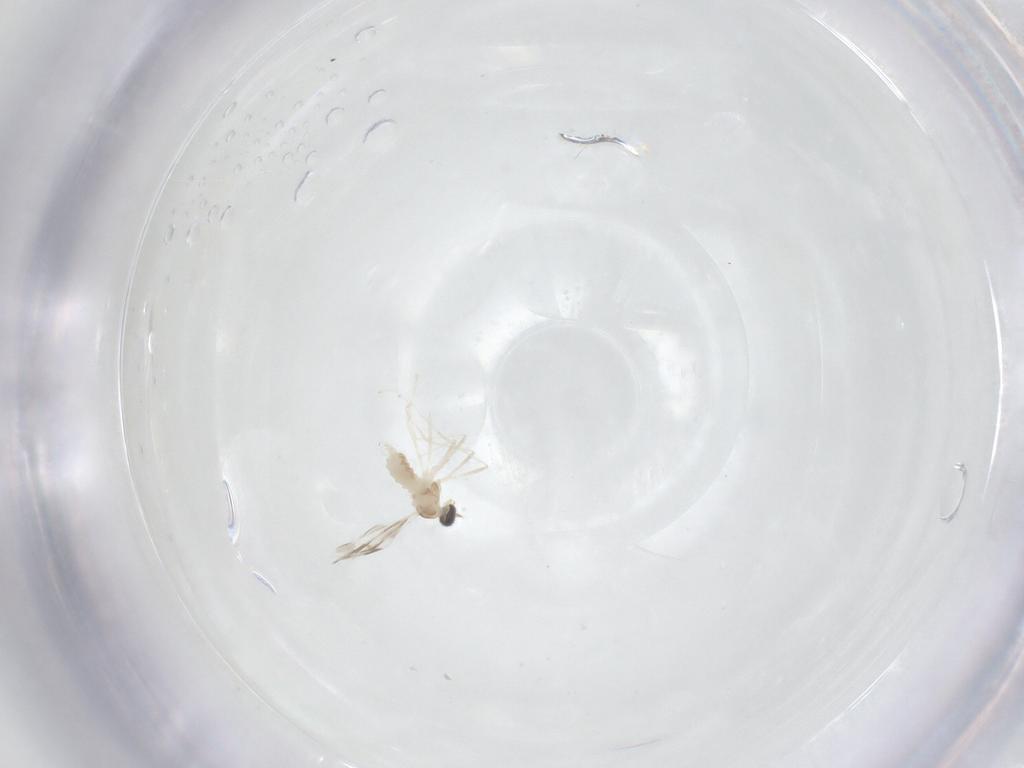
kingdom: Animalia
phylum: Arthropoda
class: Insecta
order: Diptera
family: Cecidomyiidae
